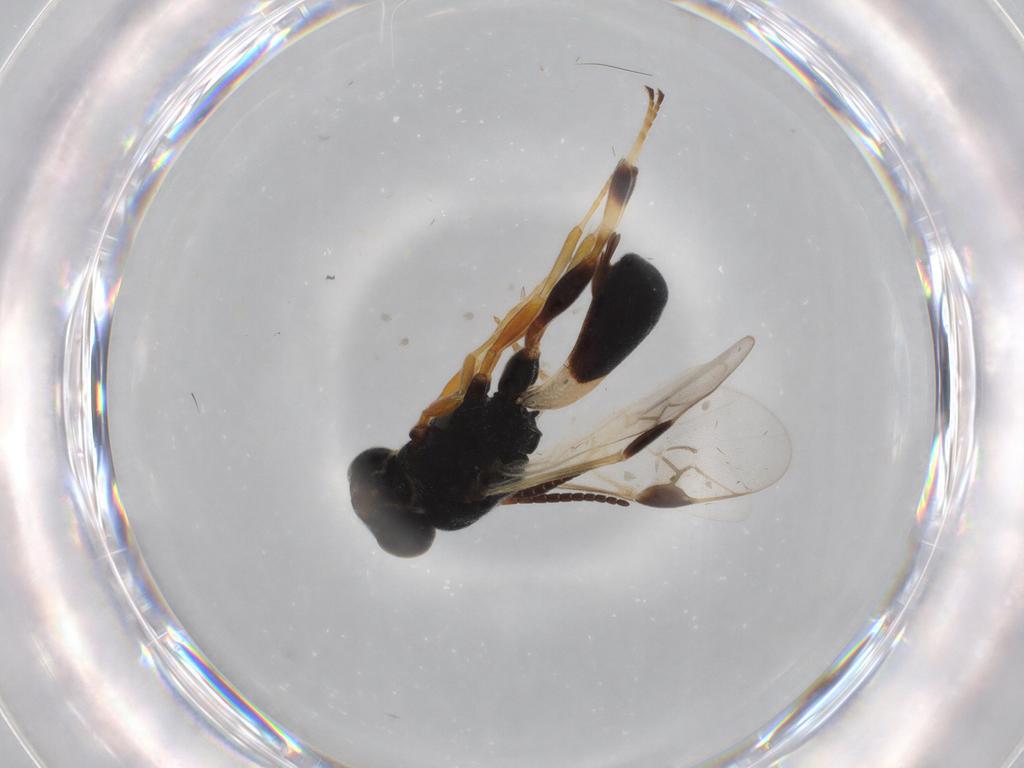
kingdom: Animalia
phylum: Arthropoda
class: Insecta
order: Hymenoptera
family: Braconidae
